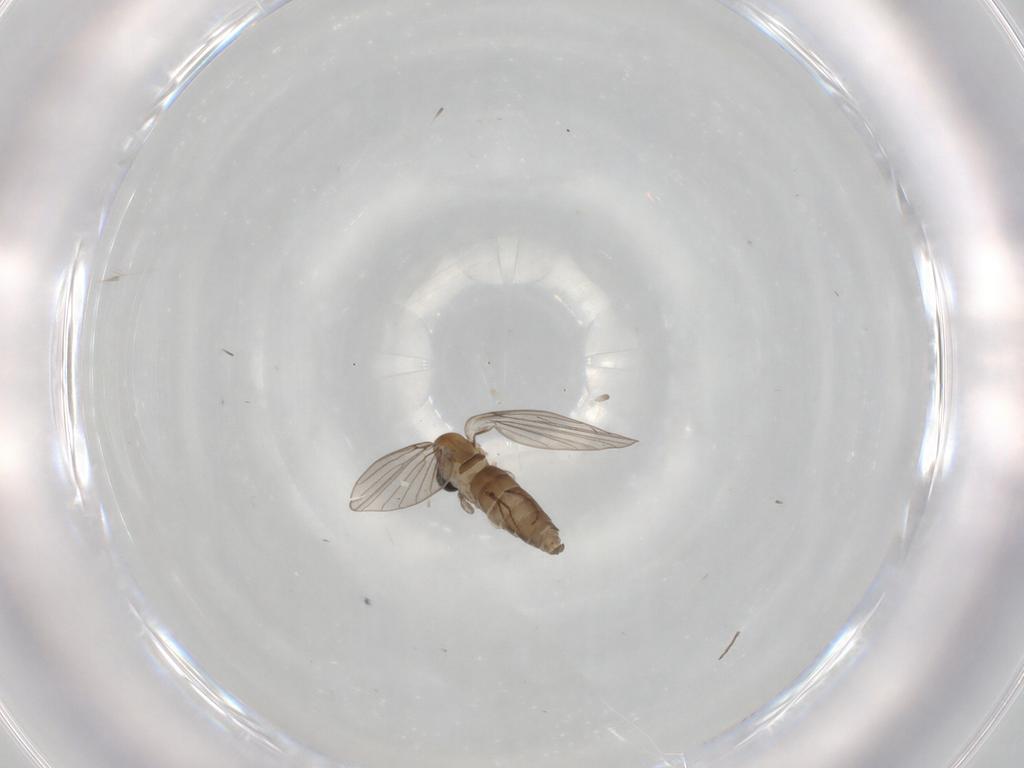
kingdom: Animalia
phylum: Arthropoda
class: Insecta
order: Diptera
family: Psychodidae
